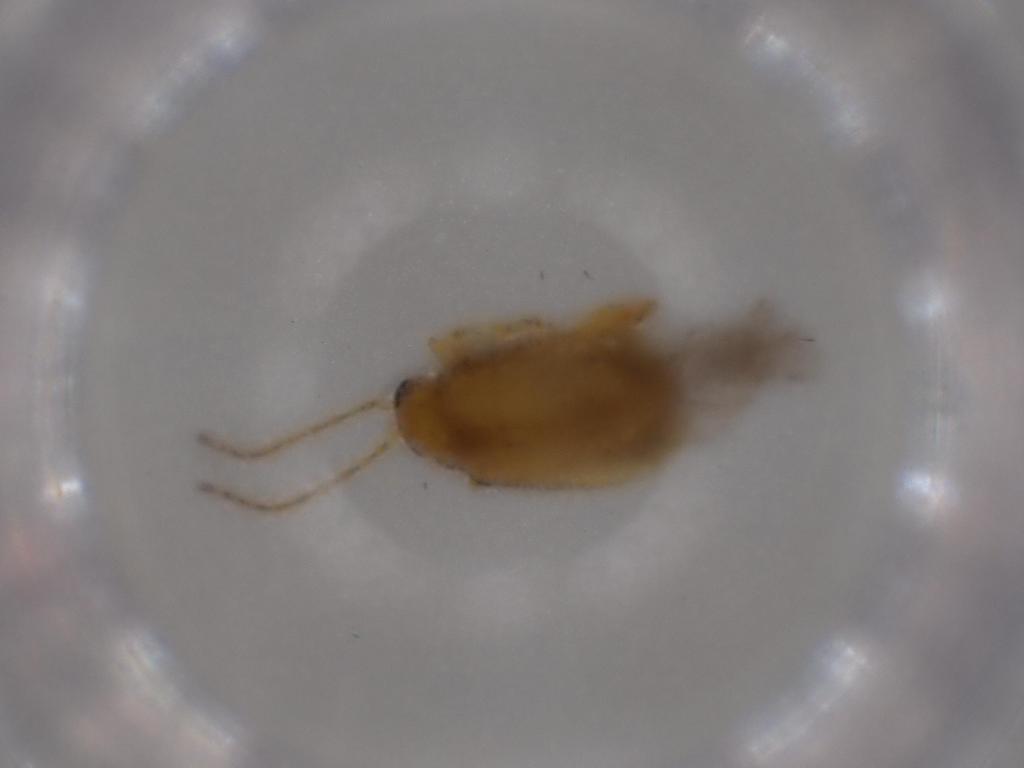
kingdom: Animalia
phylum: Arthropoda
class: Insecta
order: Coleoptera
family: Chrysomelidae
